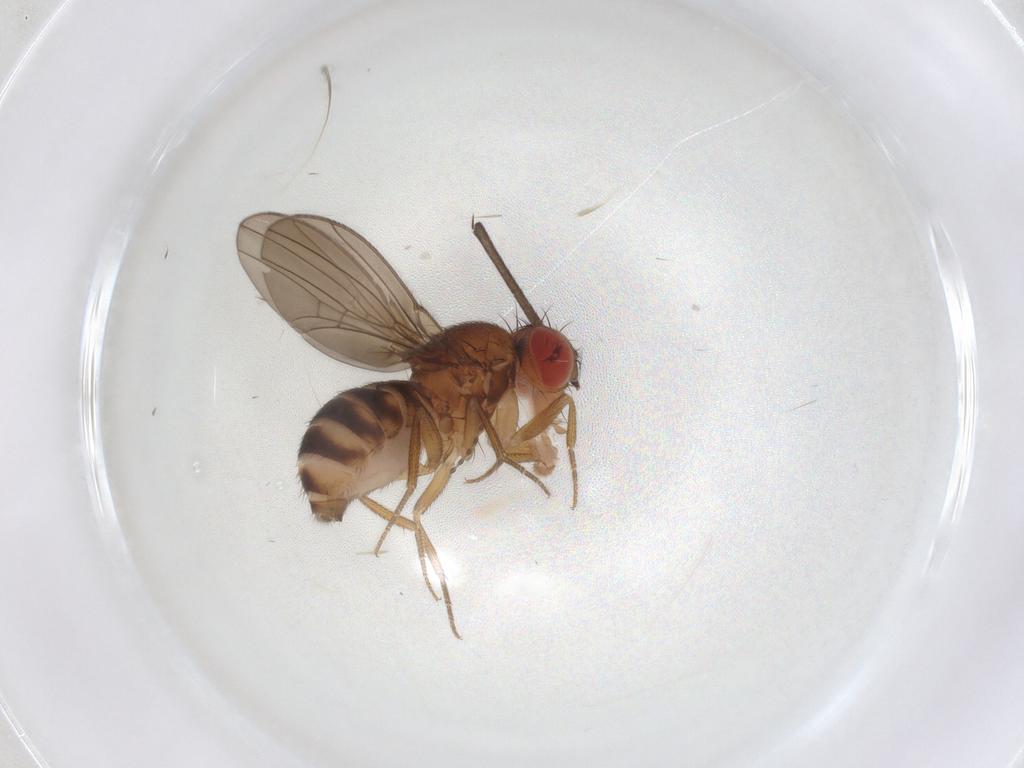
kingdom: Animalia
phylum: Arthropoda
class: Insecta
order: Diptera
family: Drosophilidae
